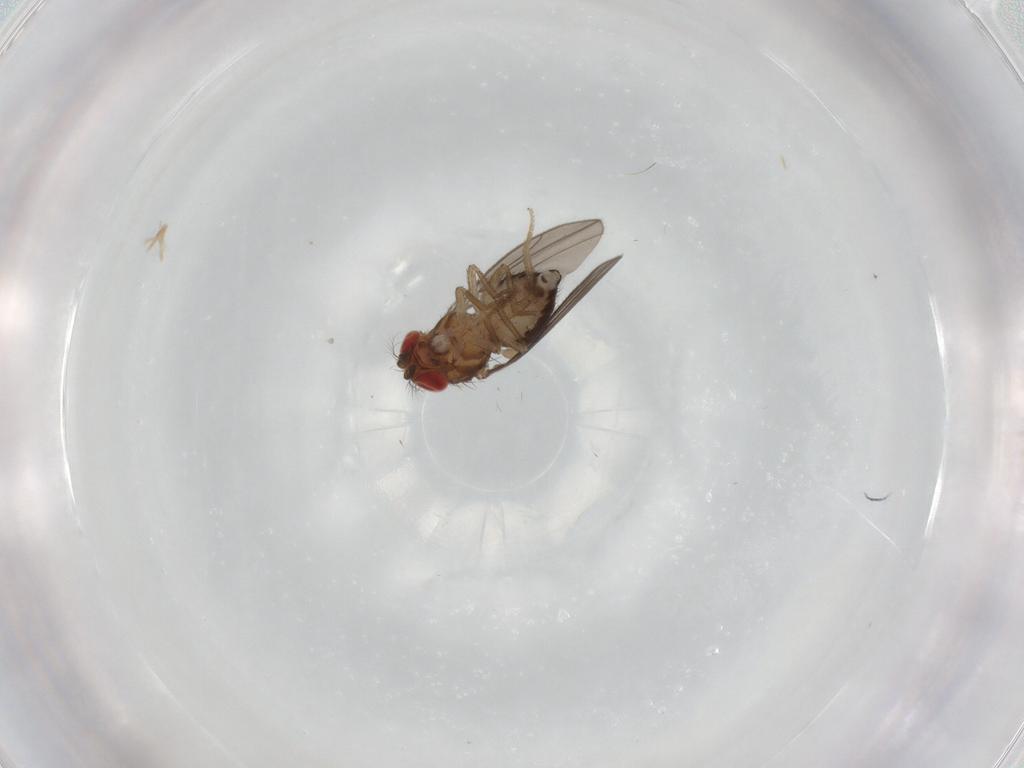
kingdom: Animalia
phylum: Arthropoda
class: Insecta
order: Diptera
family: Drosophilidae
